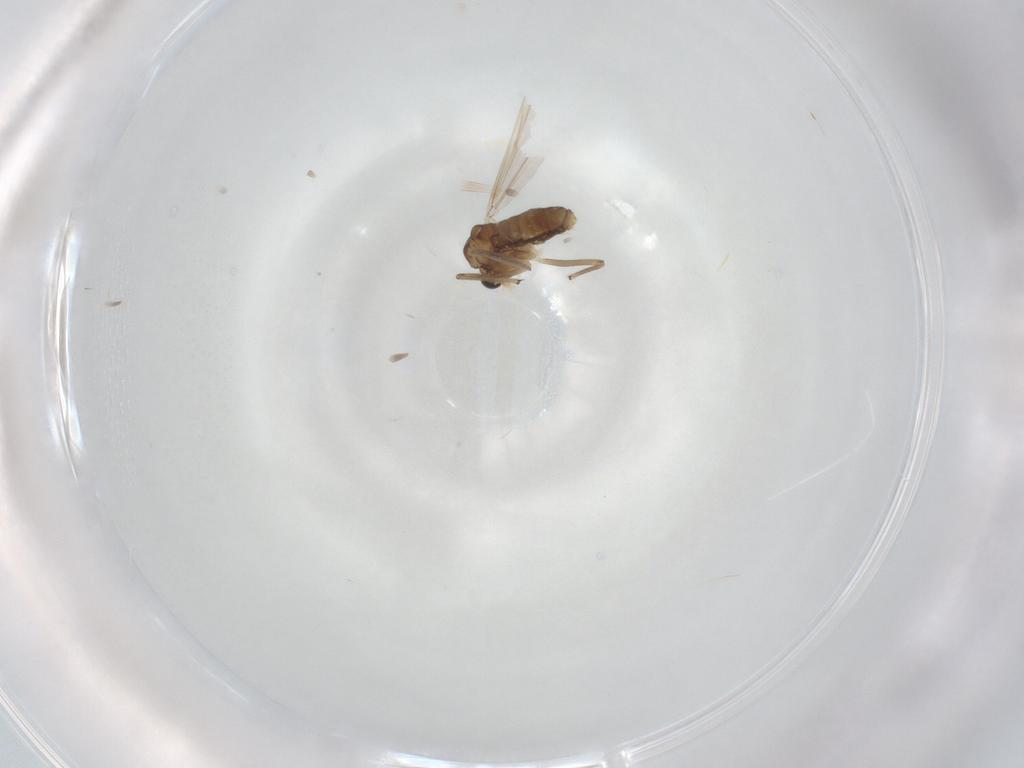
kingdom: Animalia
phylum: Arthropoda
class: Insecta
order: Diptera
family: Chironomidae
